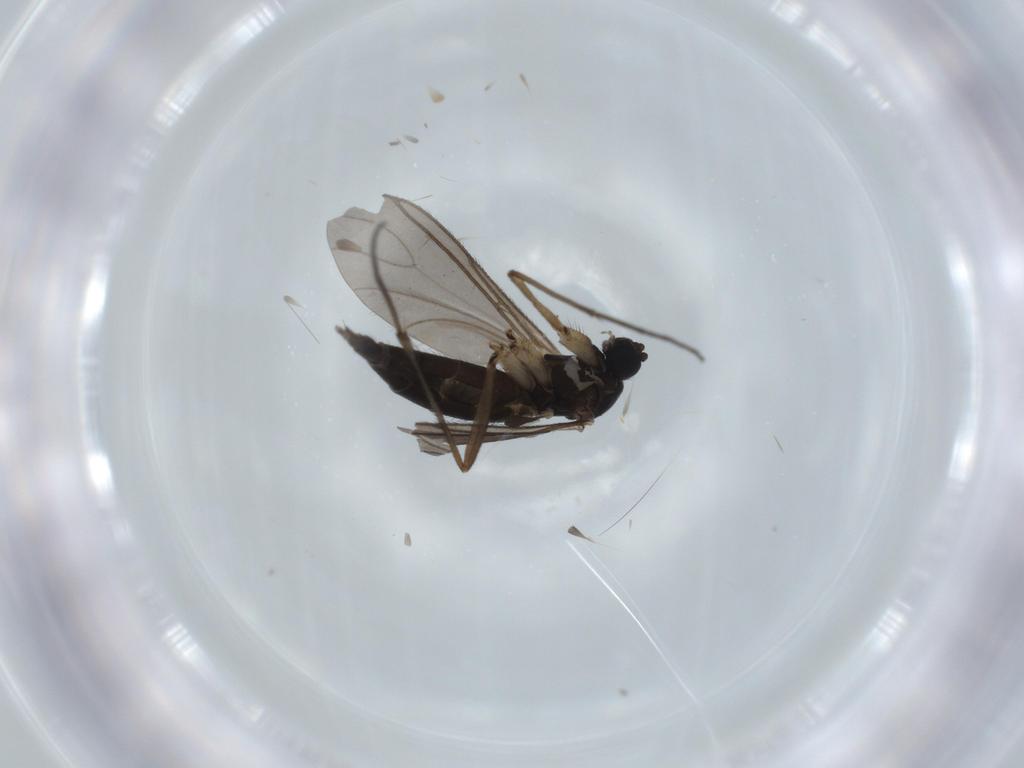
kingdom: Animalia
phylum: Arthropoda
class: Insecta
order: Diptera
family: Sciaridae
